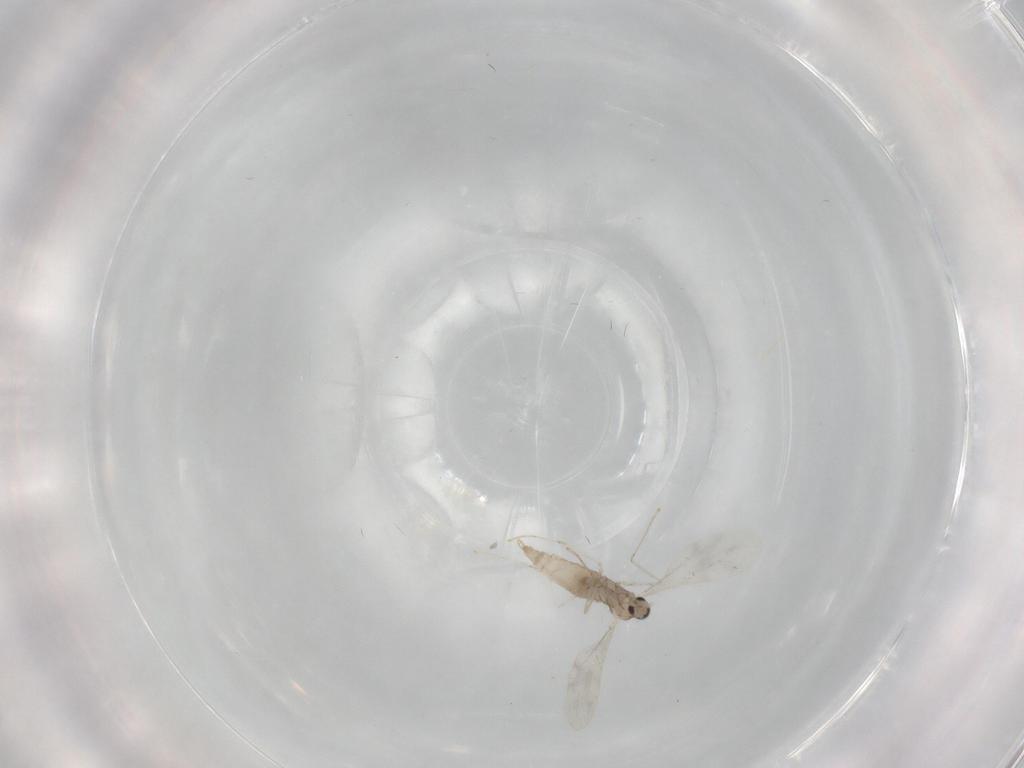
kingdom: Animalia
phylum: Arthropoda
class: Insecta
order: Diptera
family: Cecidomyiidae
